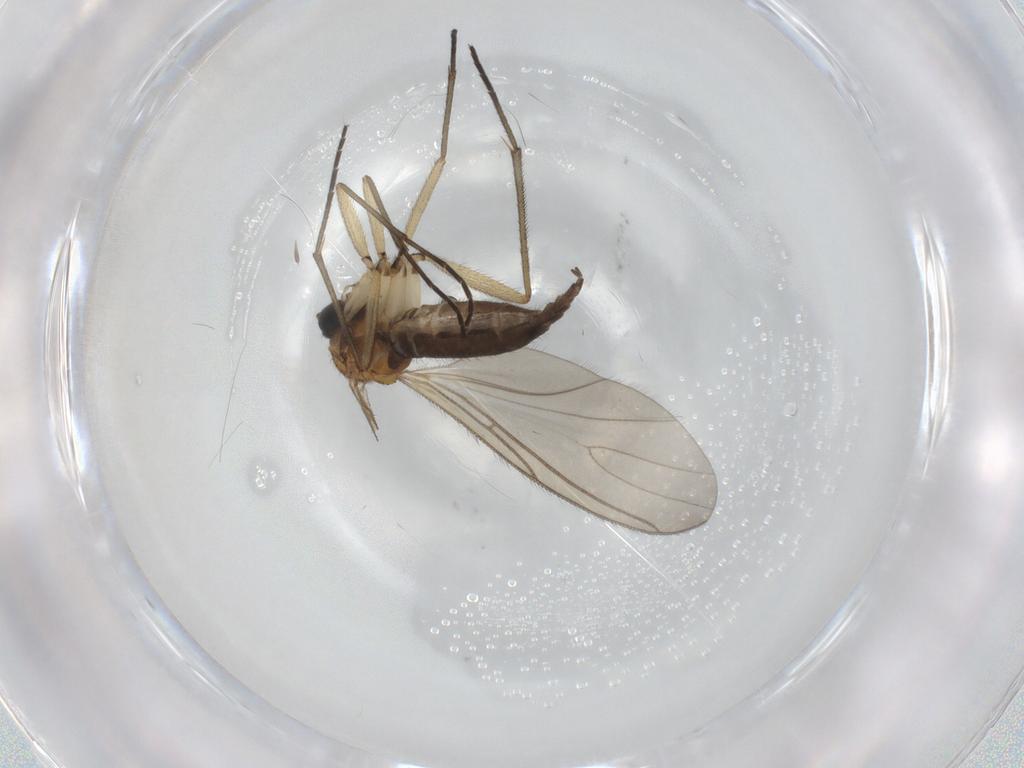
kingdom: Animalia
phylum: Arthropoda
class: Insecta
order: Diptera
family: Sciaridae
